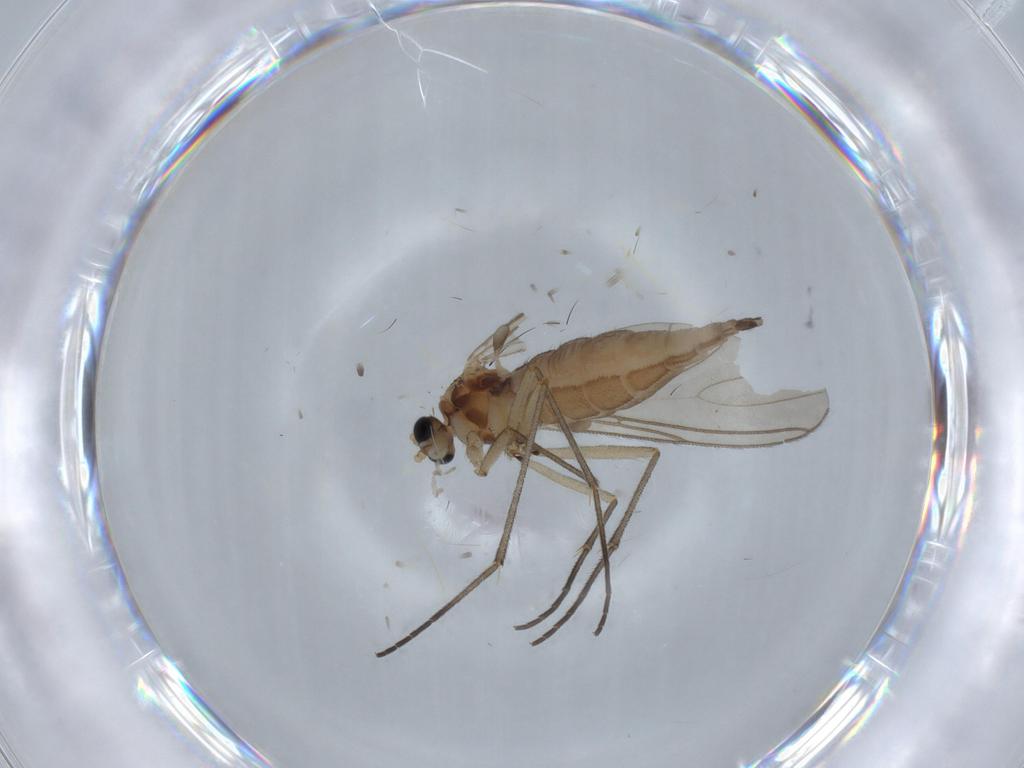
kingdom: Animalia
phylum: Arthropoda
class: Insecta
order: Diptera
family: Sciaridae
